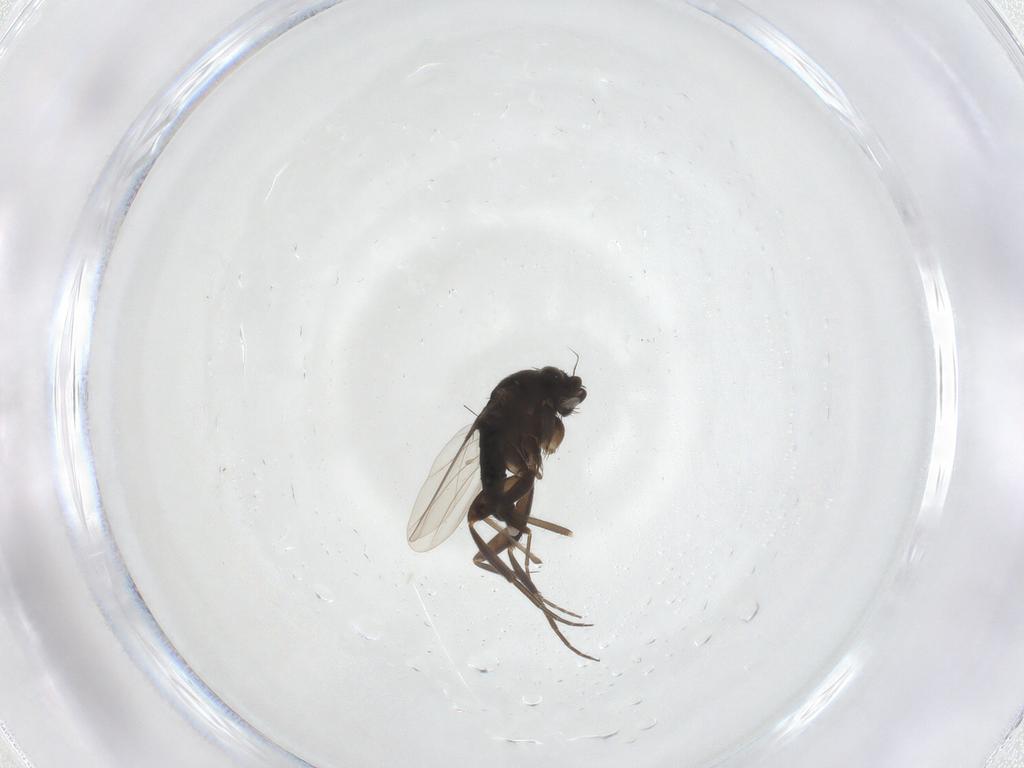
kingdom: Animalia
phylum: Arthropoda
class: Insecta
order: Diptera
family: Phoridae
